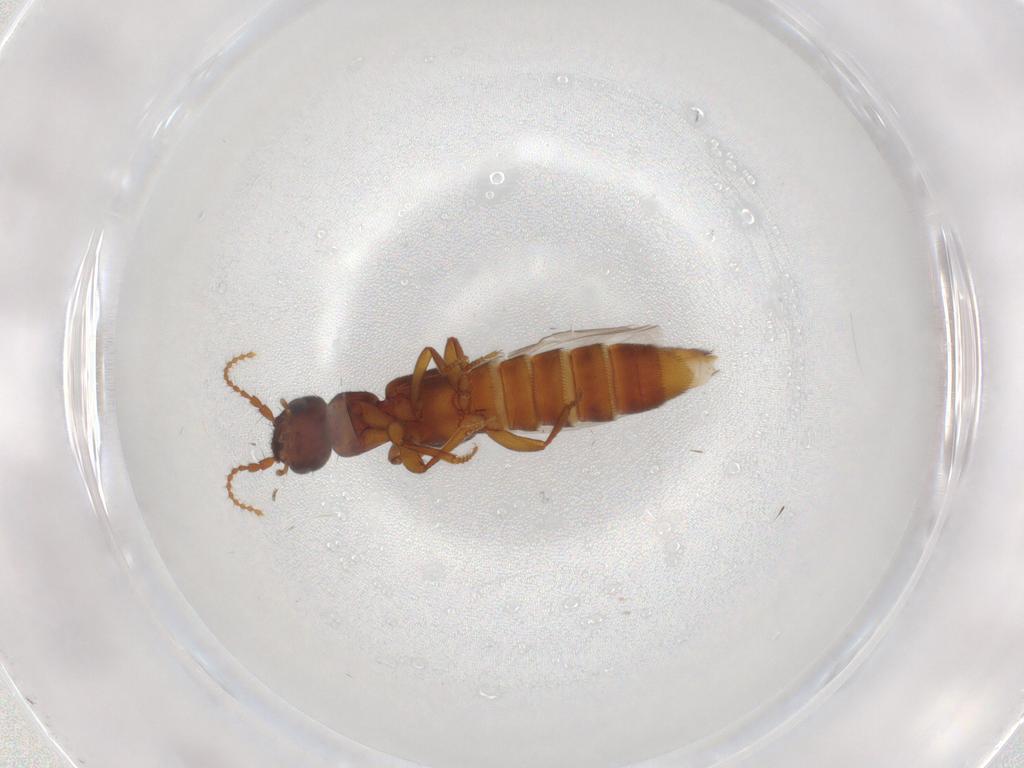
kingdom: Animalia
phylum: Arthropoda
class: Insecta
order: Coleoptera
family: Staphylinidae
